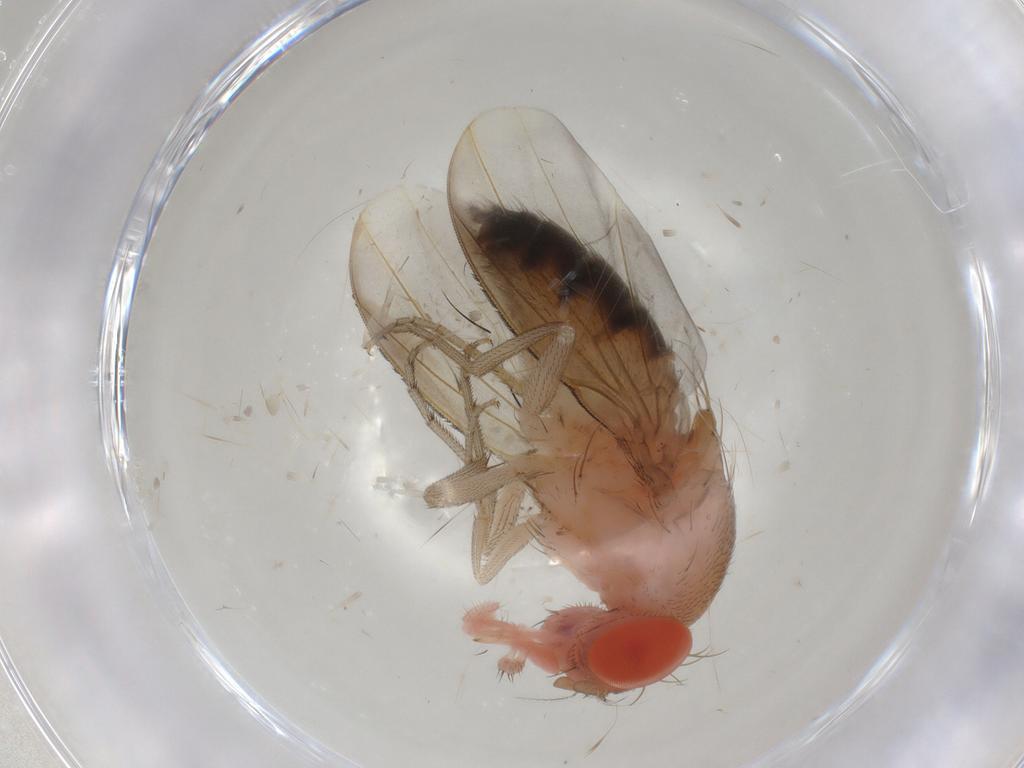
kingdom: Animalia
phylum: Arthropoda
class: Insecta
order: Diptera
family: Drosophilidae
